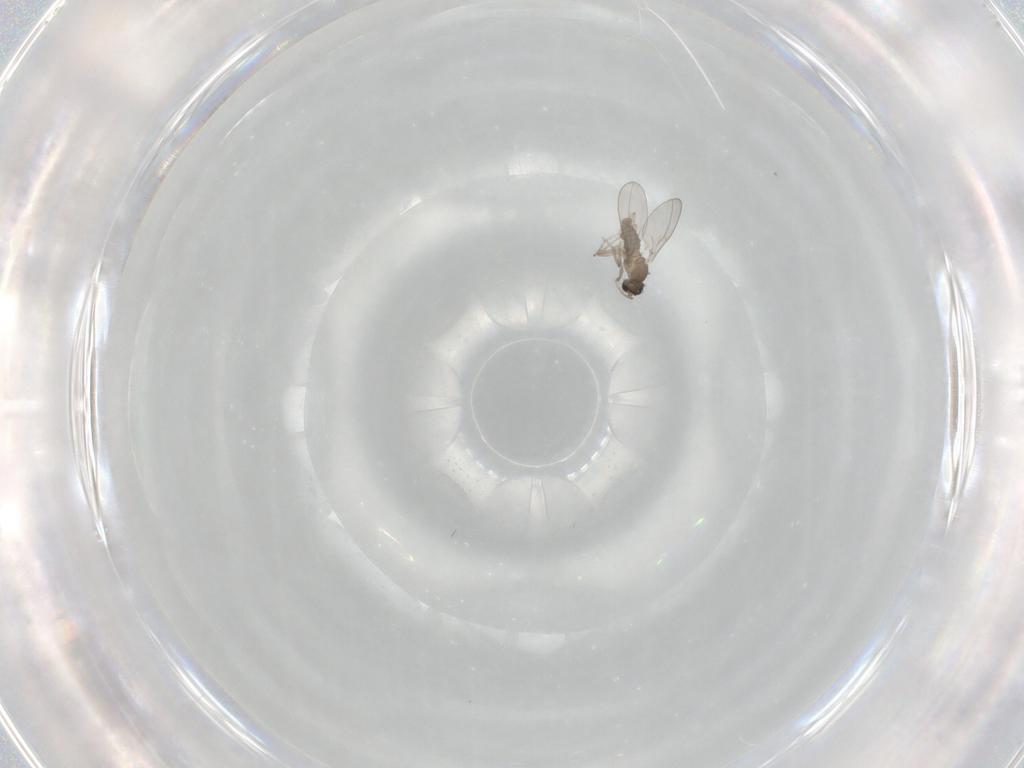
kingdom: Animalia
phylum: Arthropoda
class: Insecta
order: Diptera
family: Cecidomyiidae
